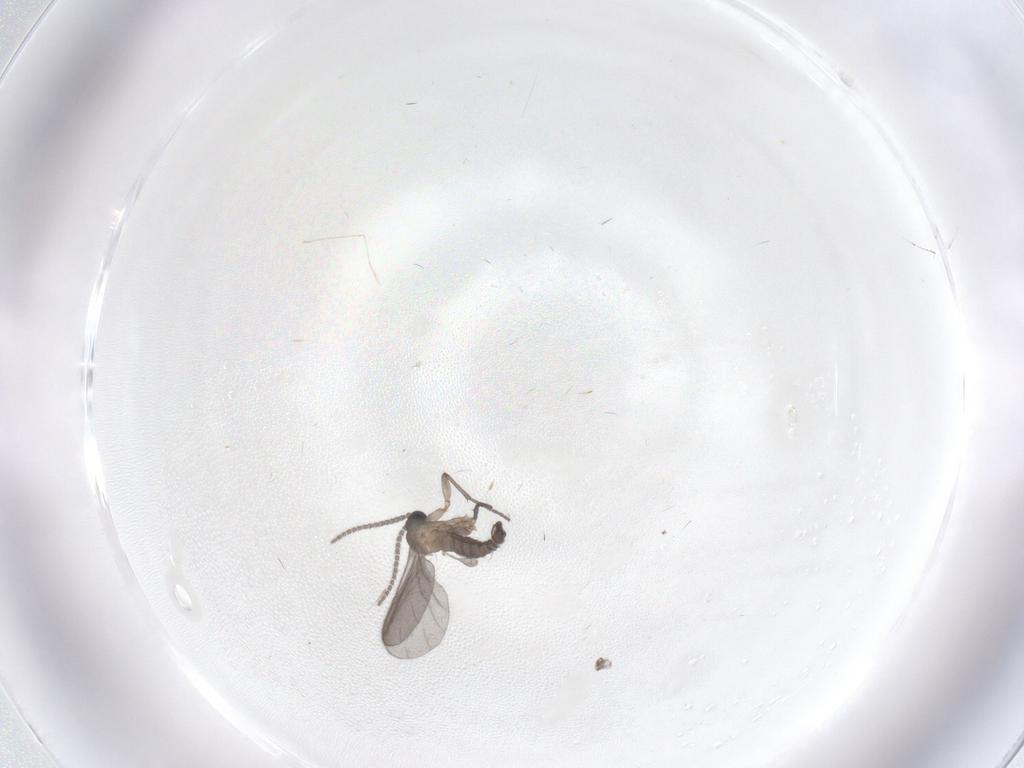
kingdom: Animalia
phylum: Arthropoda
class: Insecta
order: Diptera
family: Sciaridae
